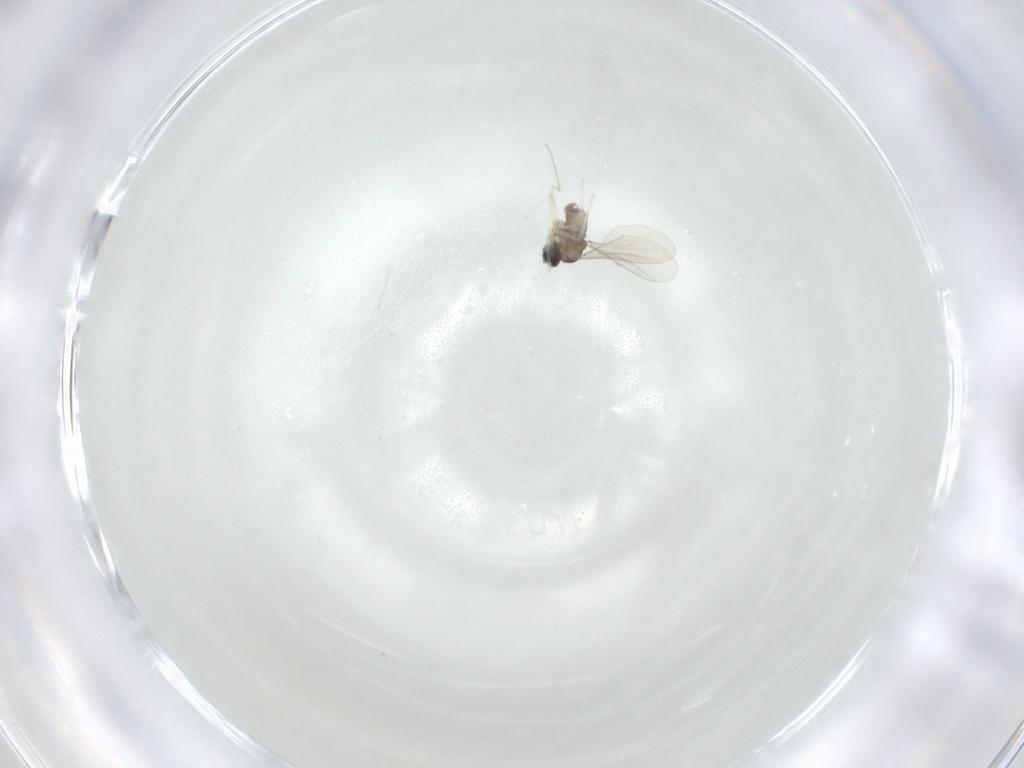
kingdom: Animalia
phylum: Arthropoda
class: Insecta
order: Diptera
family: Cecidomyiidae
